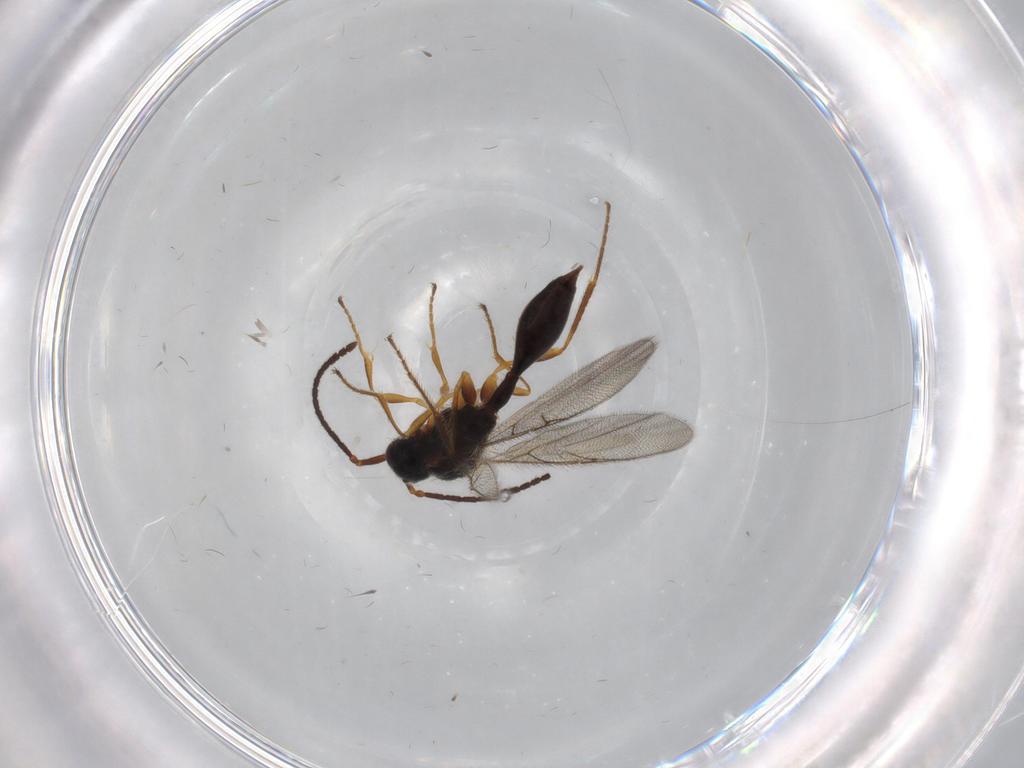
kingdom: Animalia
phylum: Arthropoda
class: Insecta
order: Hymenoptera
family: Diapriidae
